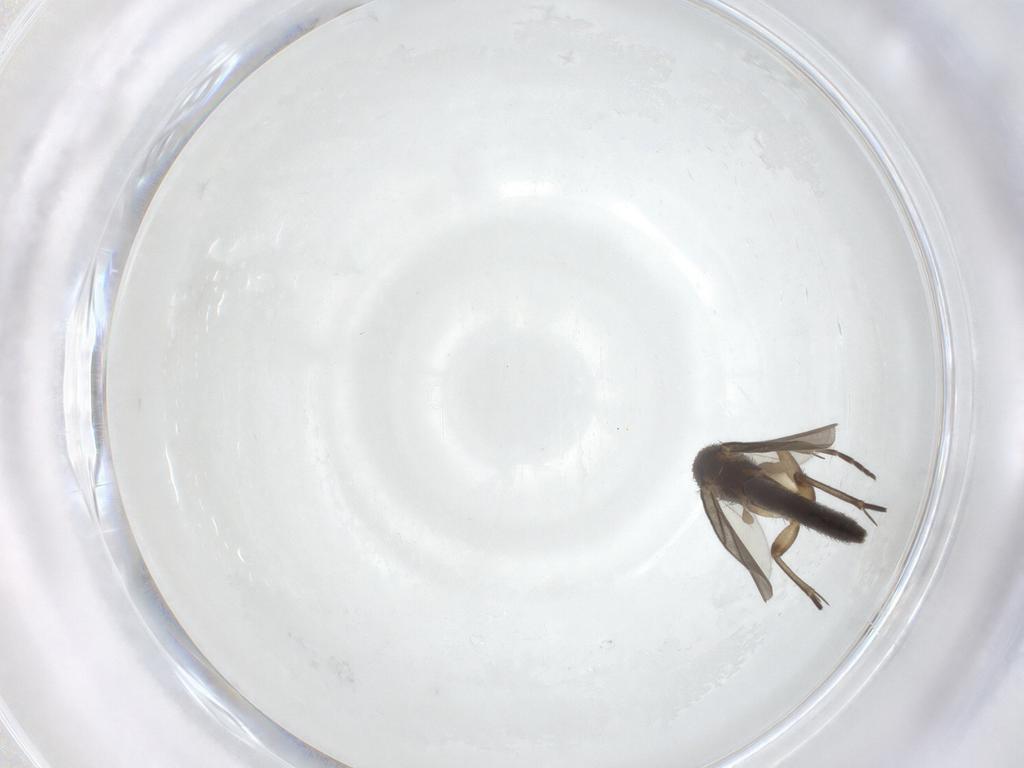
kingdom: Animalia
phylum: Arthropoda
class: Insecta
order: Diptera
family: Mycetophilidae
